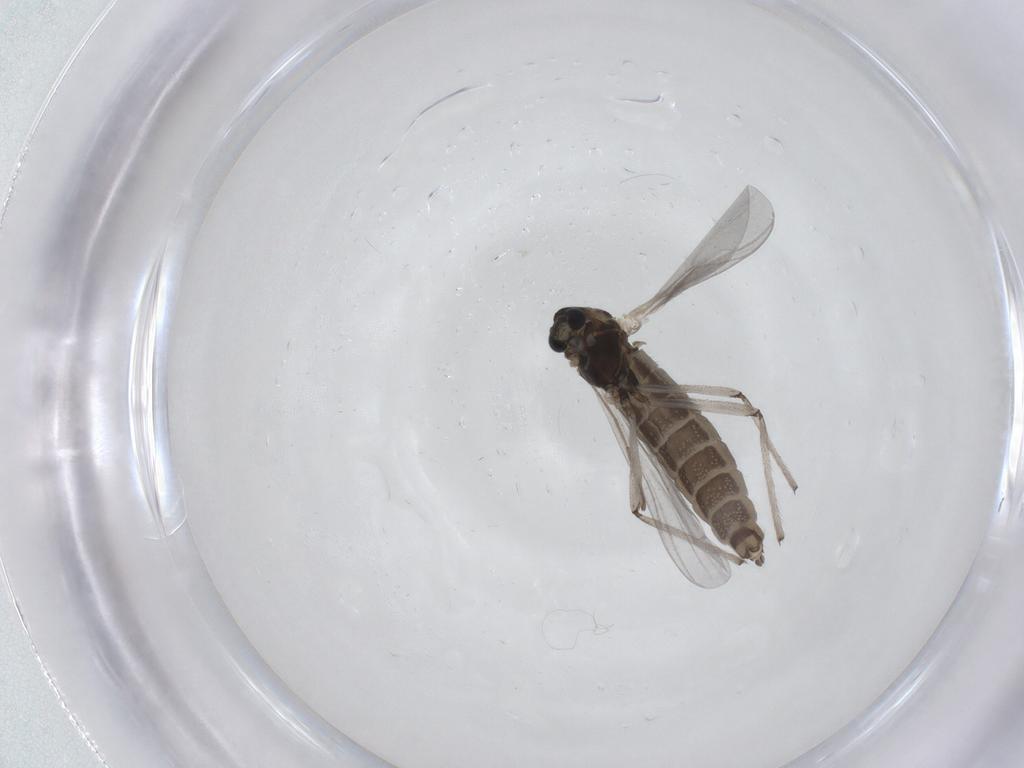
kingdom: Animalia
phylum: Arthropoda
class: Insecta
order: Diptera
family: Chironomidae
